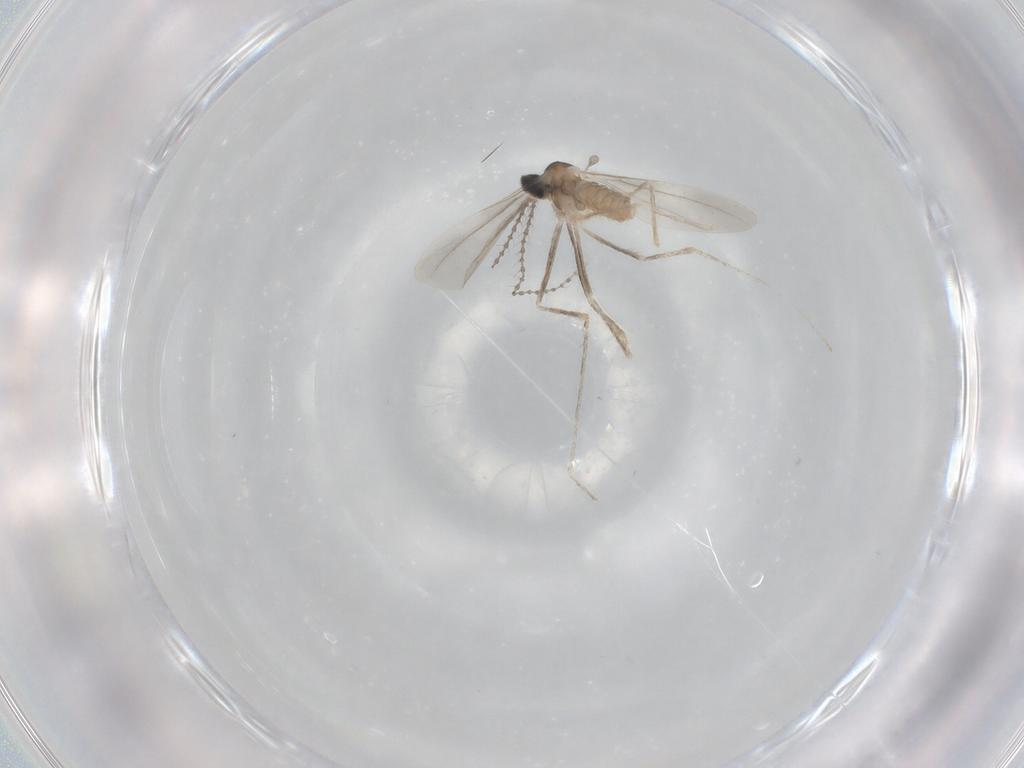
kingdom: Animalia
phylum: Arthropoda
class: Insecta
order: Diptera
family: Cecidomyiidae
